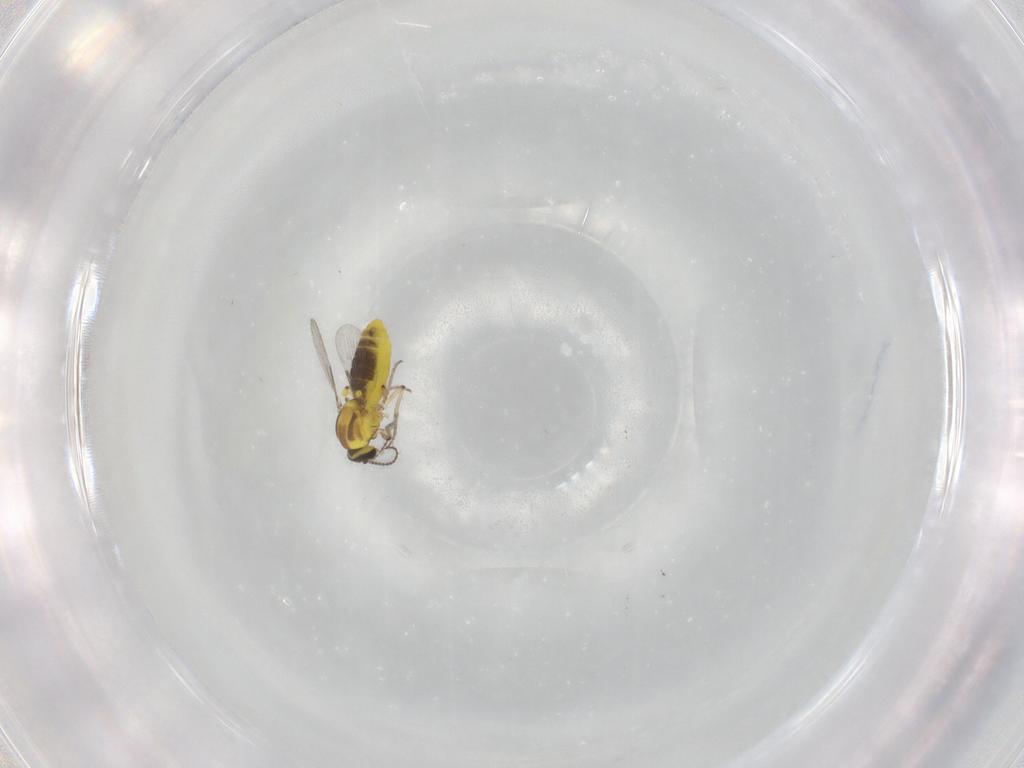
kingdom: Animalia
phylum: Arthropoda
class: Insecta
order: Diptera
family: Ceratopogonidae
